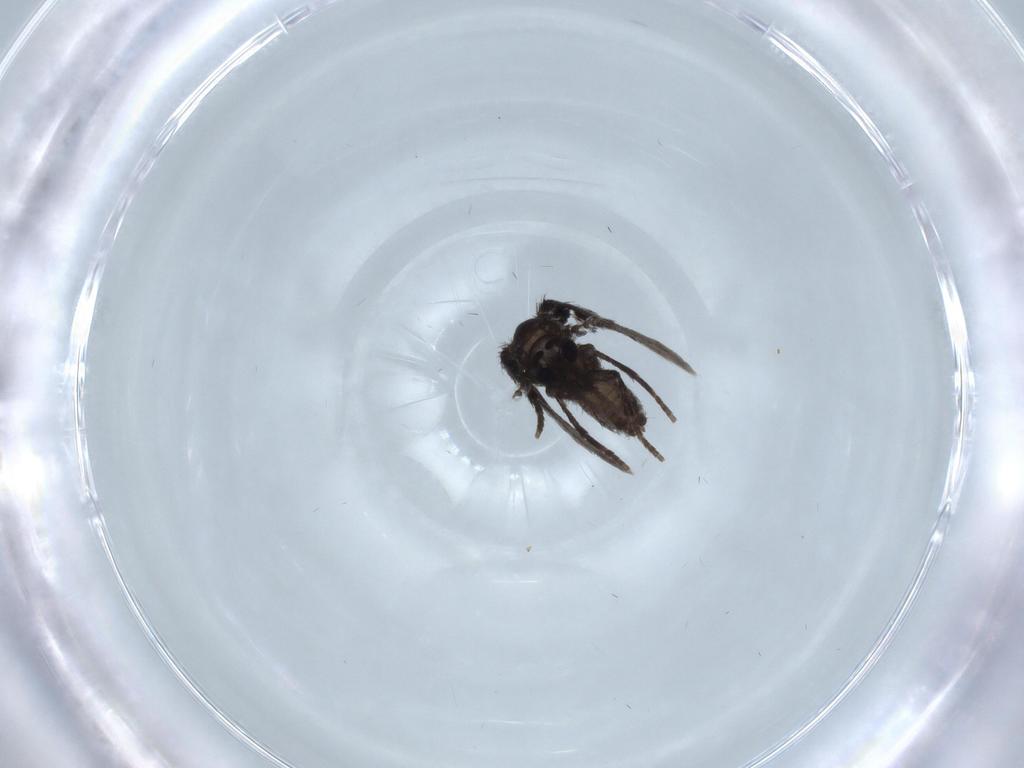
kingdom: Animalia
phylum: Arthropoda
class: Insecta
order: Diptera
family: Psychodidae
